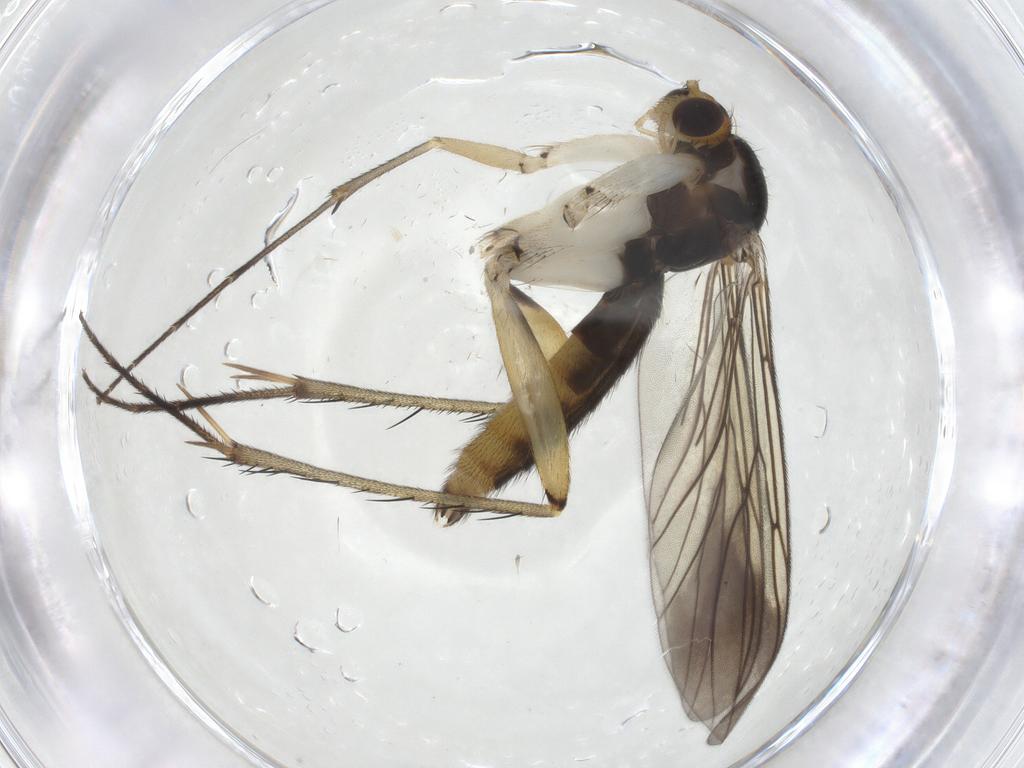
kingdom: Animalia
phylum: Arthropoda
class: Insecta
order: Diptera
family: Mycetophilidae
